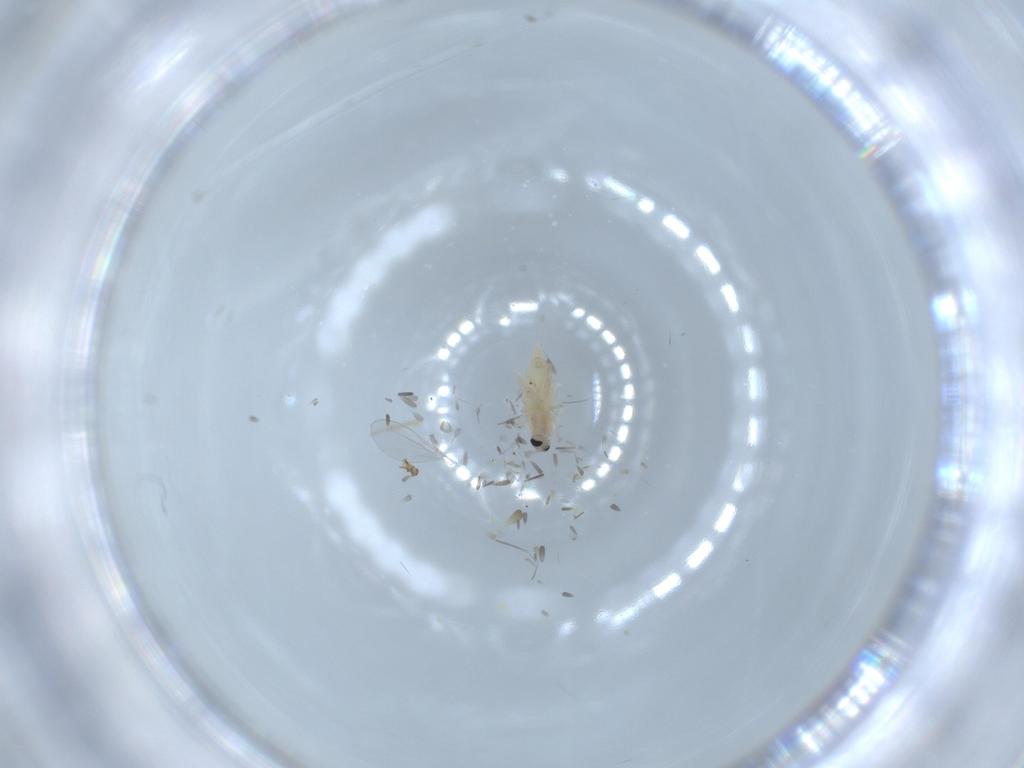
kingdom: Animalia
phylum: Arthropoda
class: Insecta
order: Diptera
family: Cecidomyiidae
